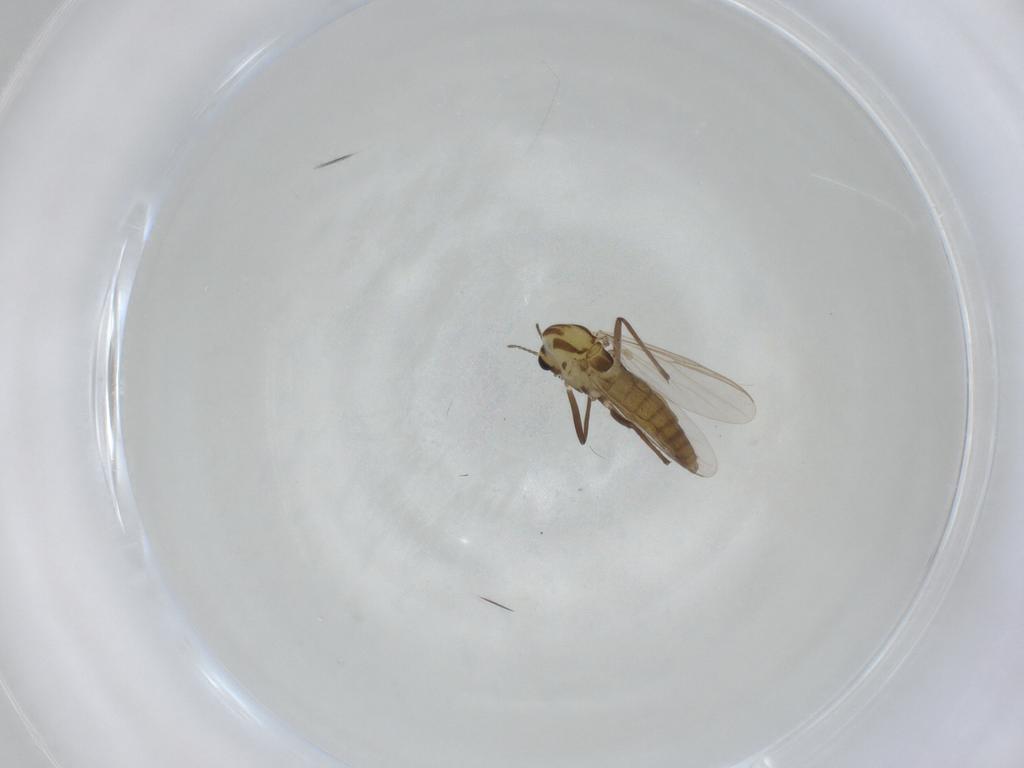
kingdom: Animalia
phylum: Arthropoda
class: Insecta
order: Diptera
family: Chironomidae
